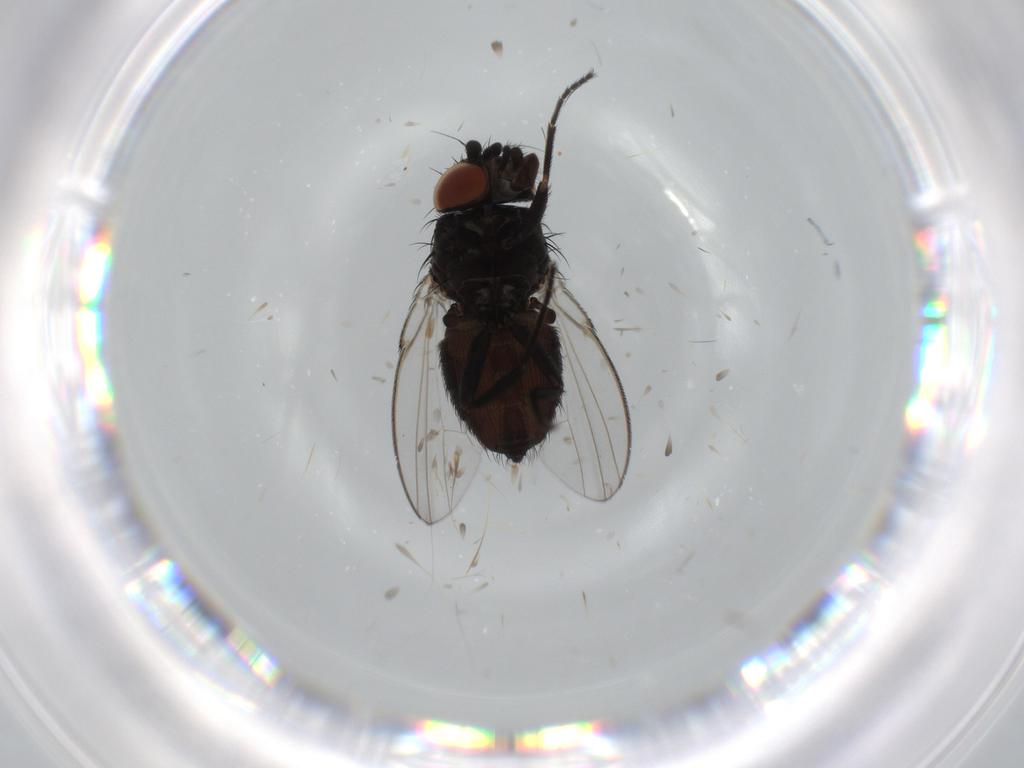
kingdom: Animalia
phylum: Arthropoda
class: Insecta
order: Diptera
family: Milichiidae
